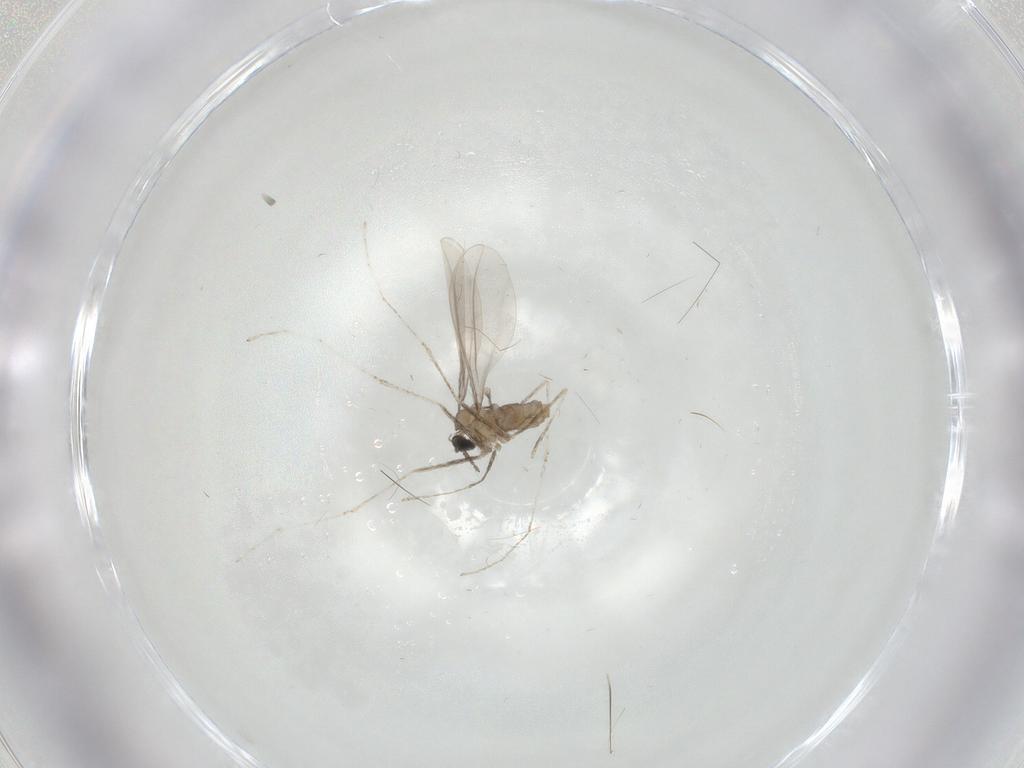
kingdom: Animalia
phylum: Arthropoda
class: Insecta
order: Diptera
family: Cecidomyiidae
